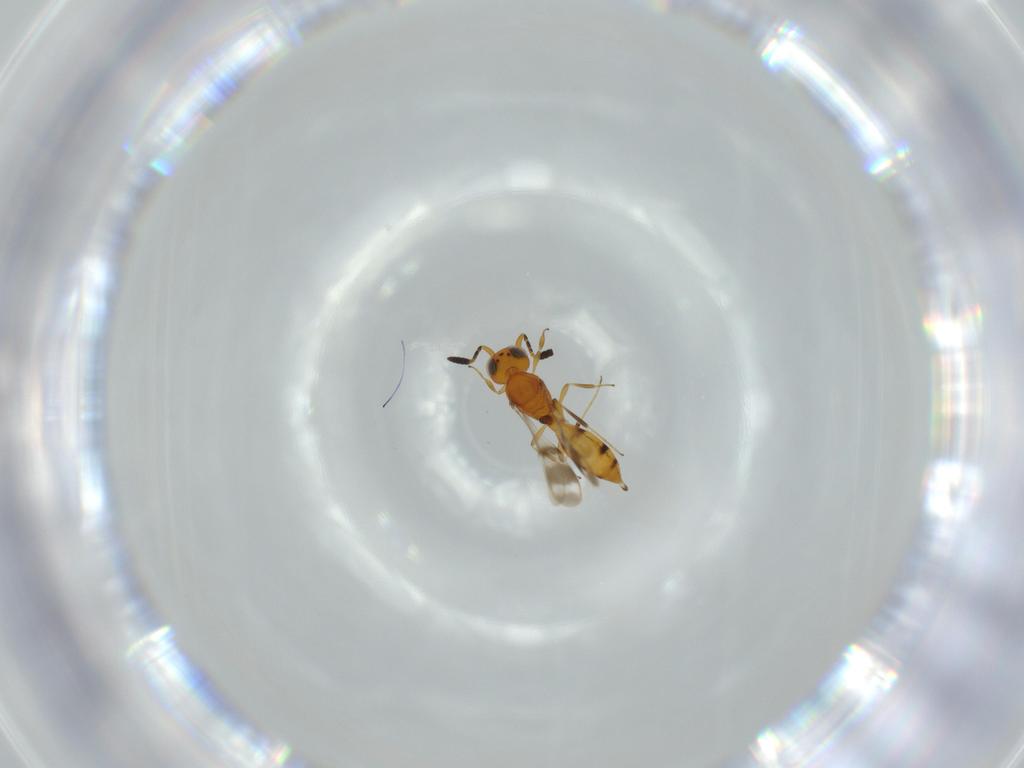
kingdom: Animalia
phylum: Arthropoda
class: Insecta
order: Hymenoptera
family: Scelionidae
